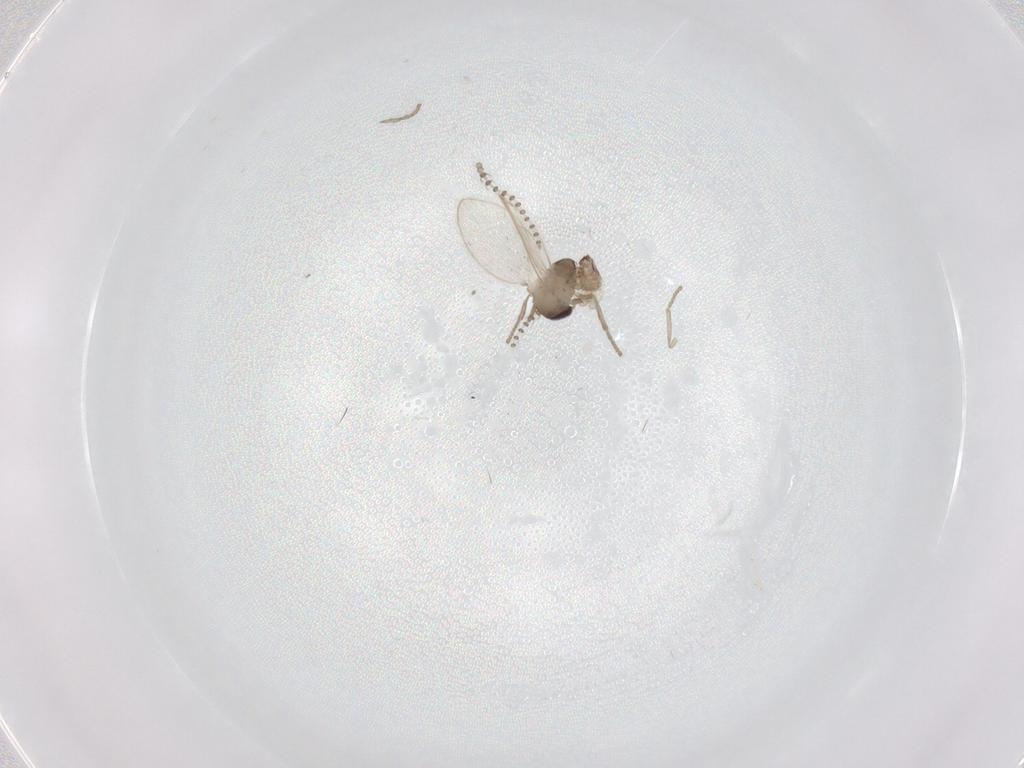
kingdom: Animalia
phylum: Arthropoda
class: Insecta
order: Diptera
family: Psychodidae
